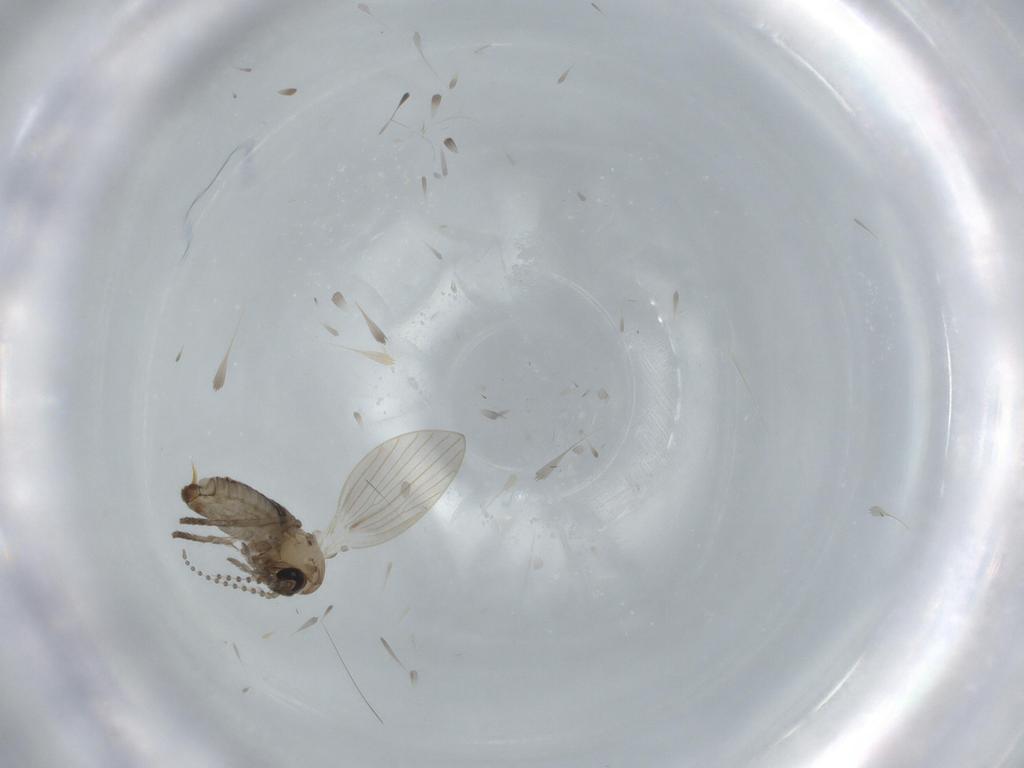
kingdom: Animalia
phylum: Arthropoda
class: Insecta
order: Diptera
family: Psychodidae
